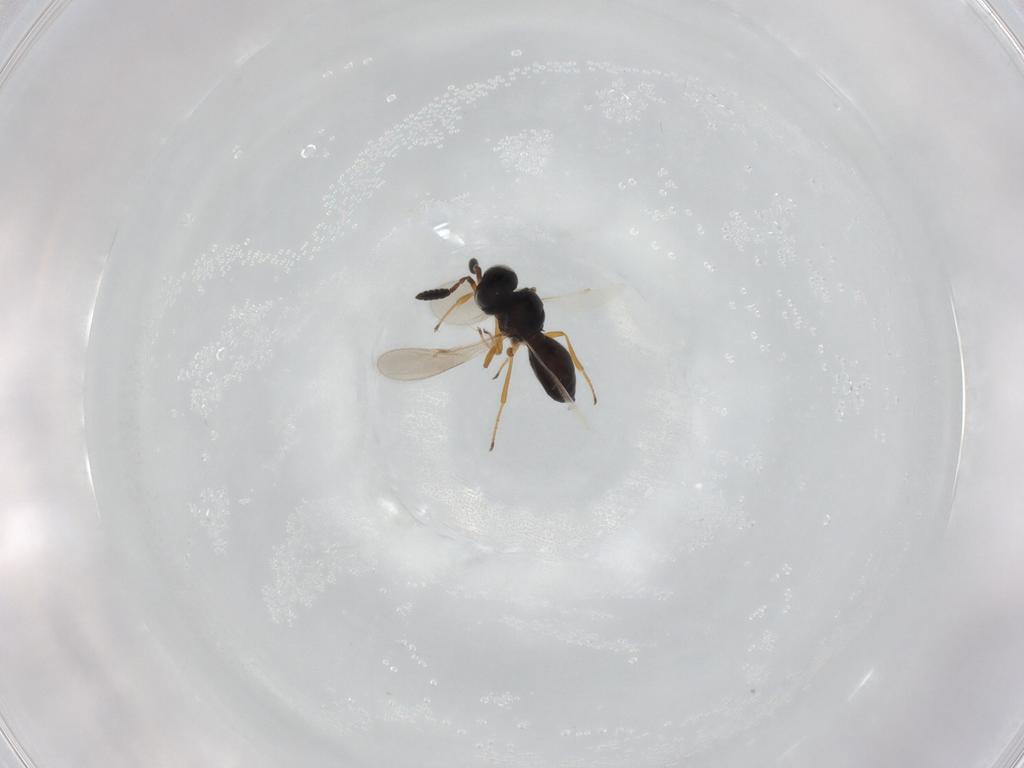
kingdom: Animalia
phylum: Arthropoda
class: Insecta
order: Hymenoptera
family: Scelionidae
